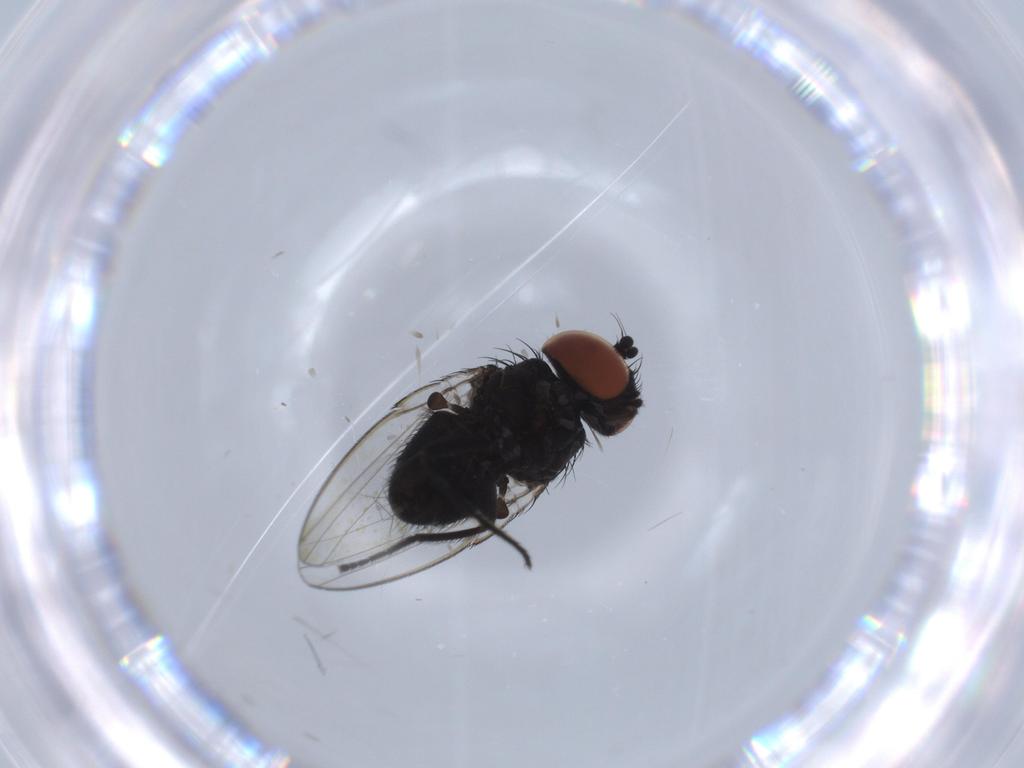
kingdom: Animalia
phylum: Arthropoda
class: Insecta
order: Diptera
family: Milichiidae
